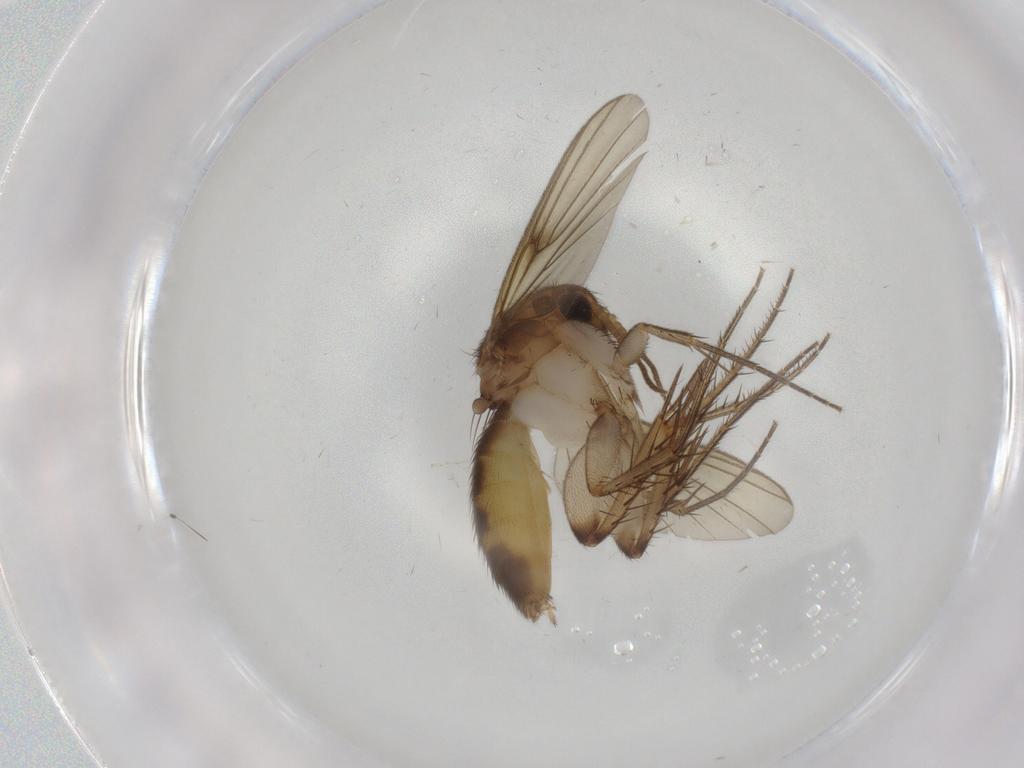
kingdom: Animalia
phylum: Arthropoda
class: Insecta
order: Diptera
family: Psychodidae
